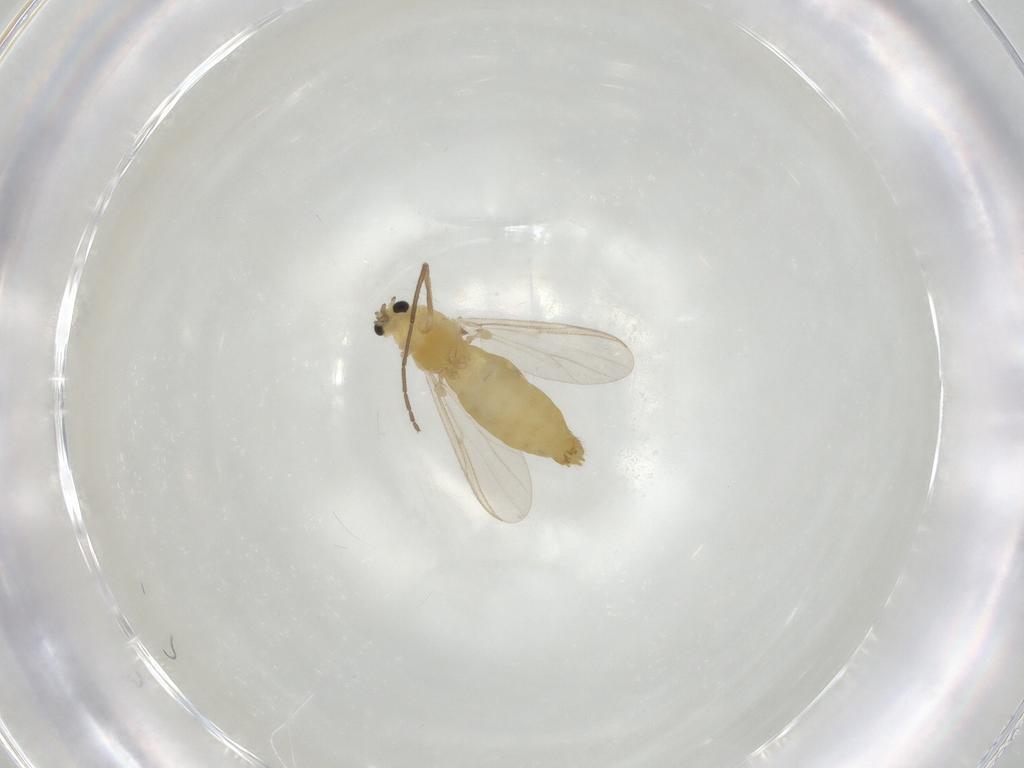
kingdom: Animalia
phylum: Arthropoda
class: Insecta
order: Diptera
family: Chironomidae
